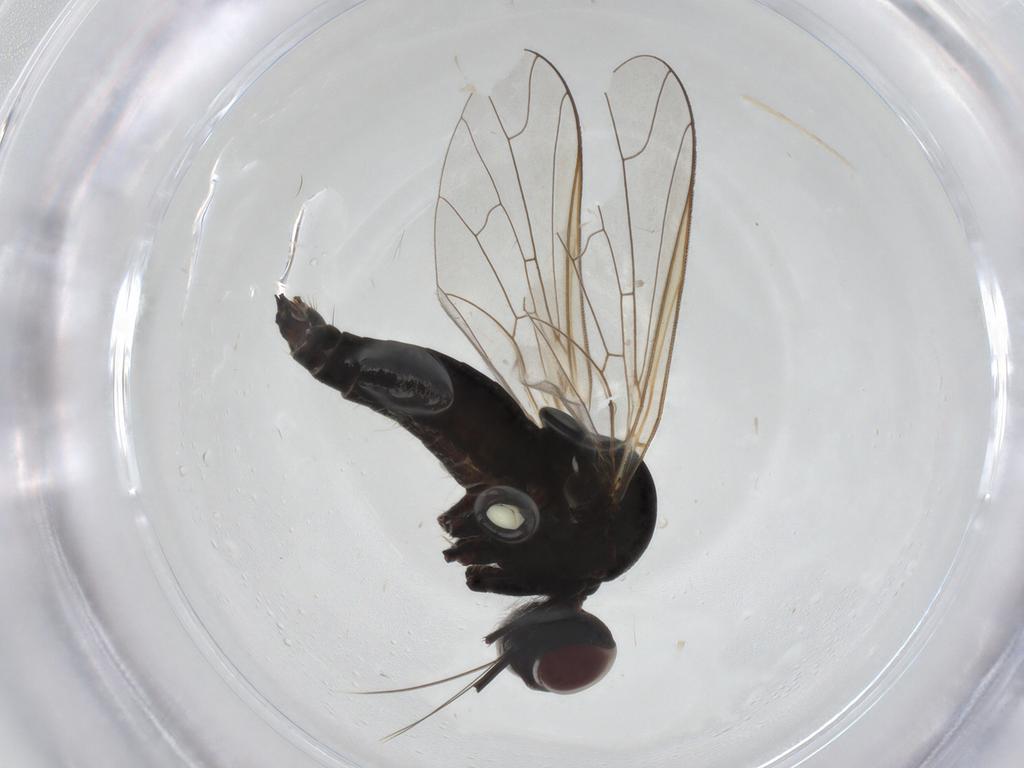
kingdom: Animalia
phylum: Arthropoda
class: Insecta
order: Diptera
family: Bombyliidae
